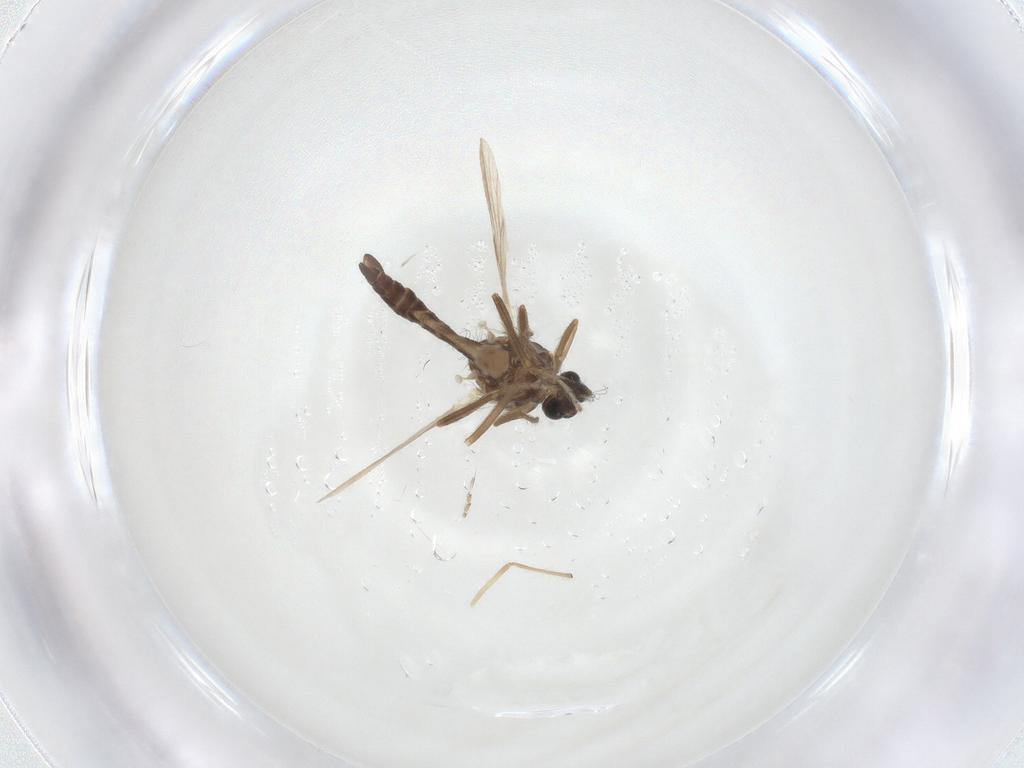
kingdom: Animalia
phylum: Arthropoda
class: Insecta
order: Diptera
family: Ceratopogonidae
